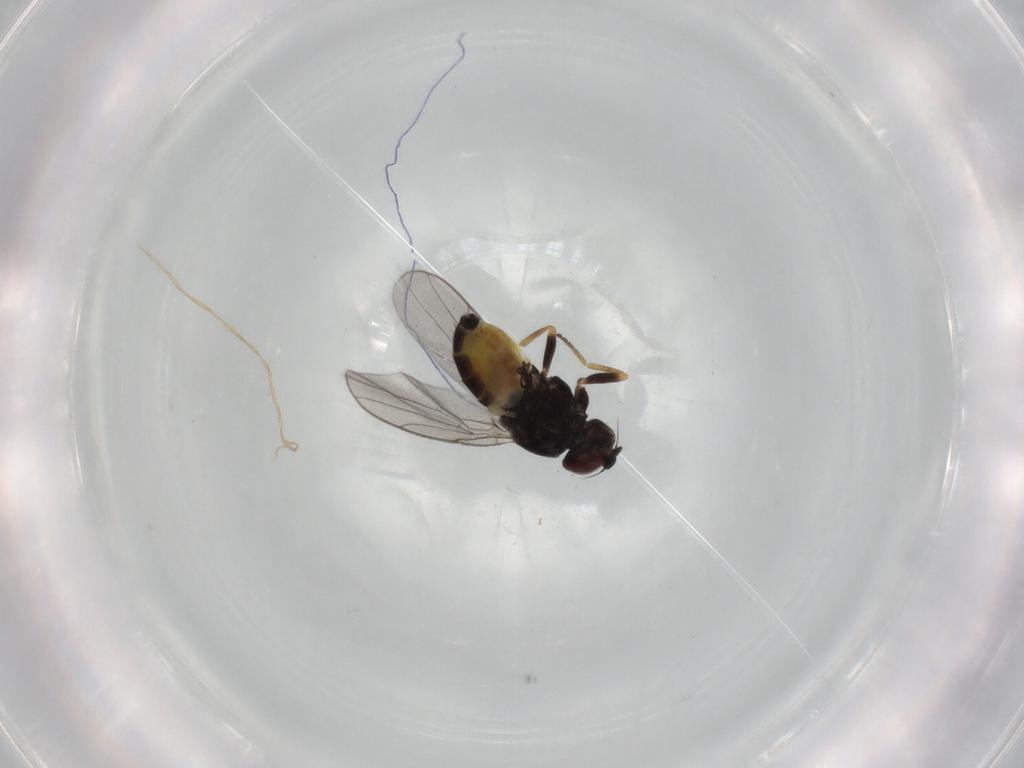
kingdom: Animalia
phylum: Arthropoda
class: Insecta
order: Diptera
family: Chloropidae
